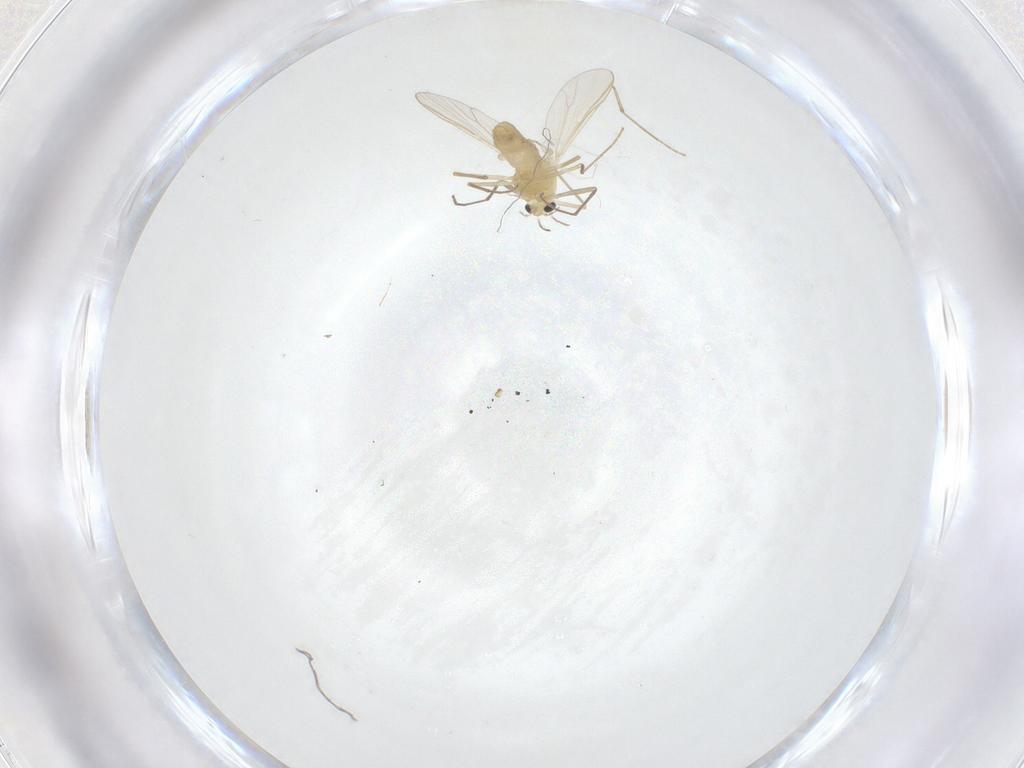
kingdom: Animalia
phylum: Arthropoda
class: Insecta
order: Diptera
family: Chironomidae
